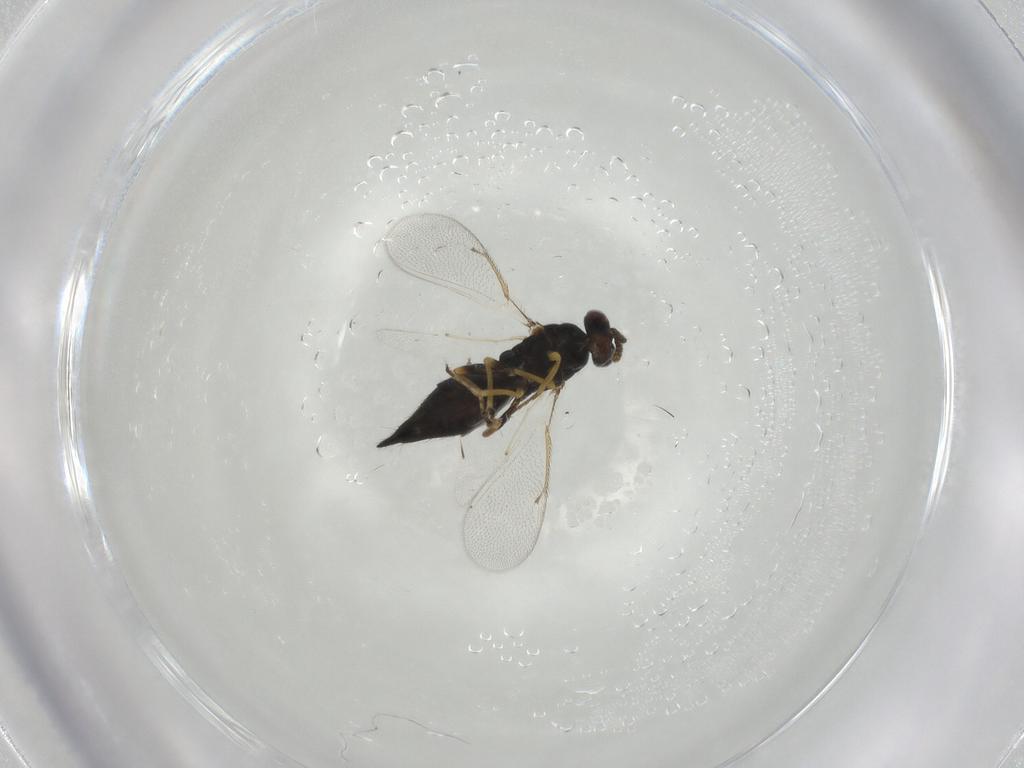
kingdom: Animalia
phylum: Arthropoda
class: Insecta
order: Hymenoptera
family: Eulophidae
